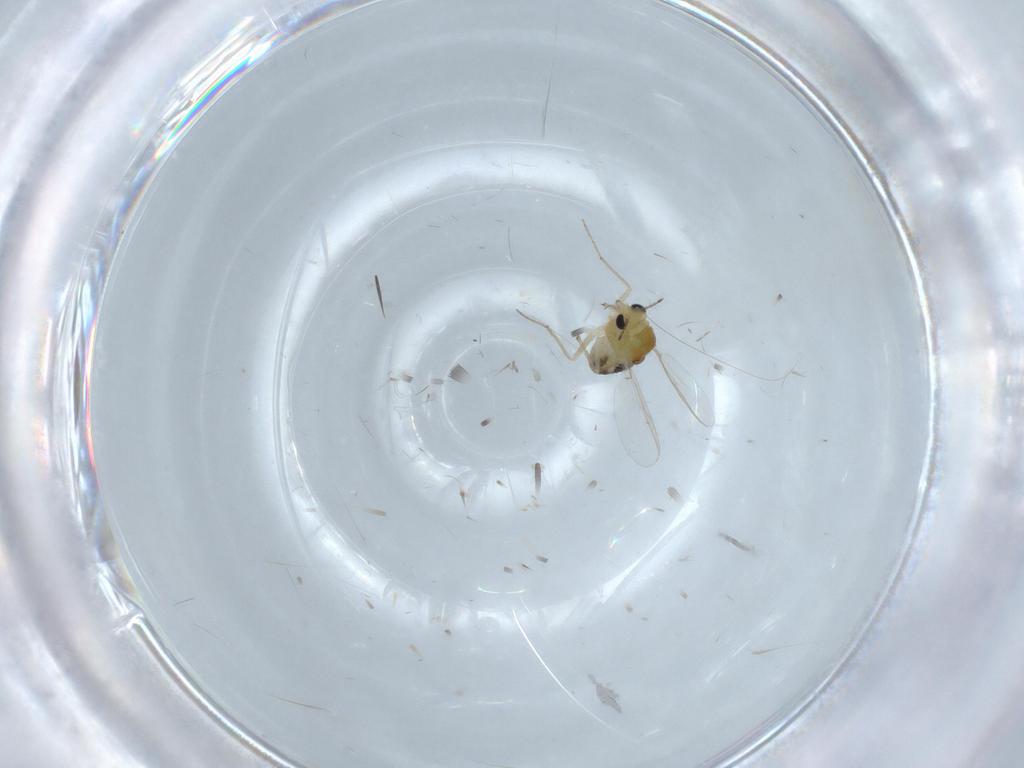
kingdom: Animalia
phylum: Arthropoda
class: Insecta
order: Diptera
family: Chironomidae
